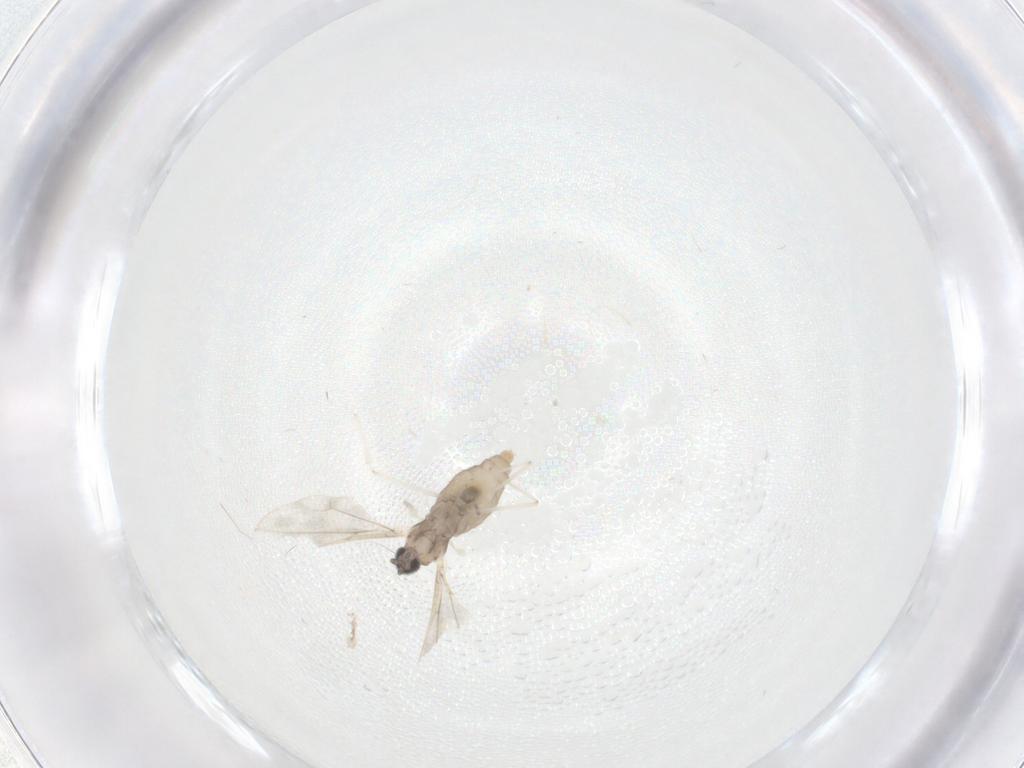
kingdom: Animalia
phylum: Arthropoda
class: Insecta
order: Diptera
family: Cecidomyiidae
